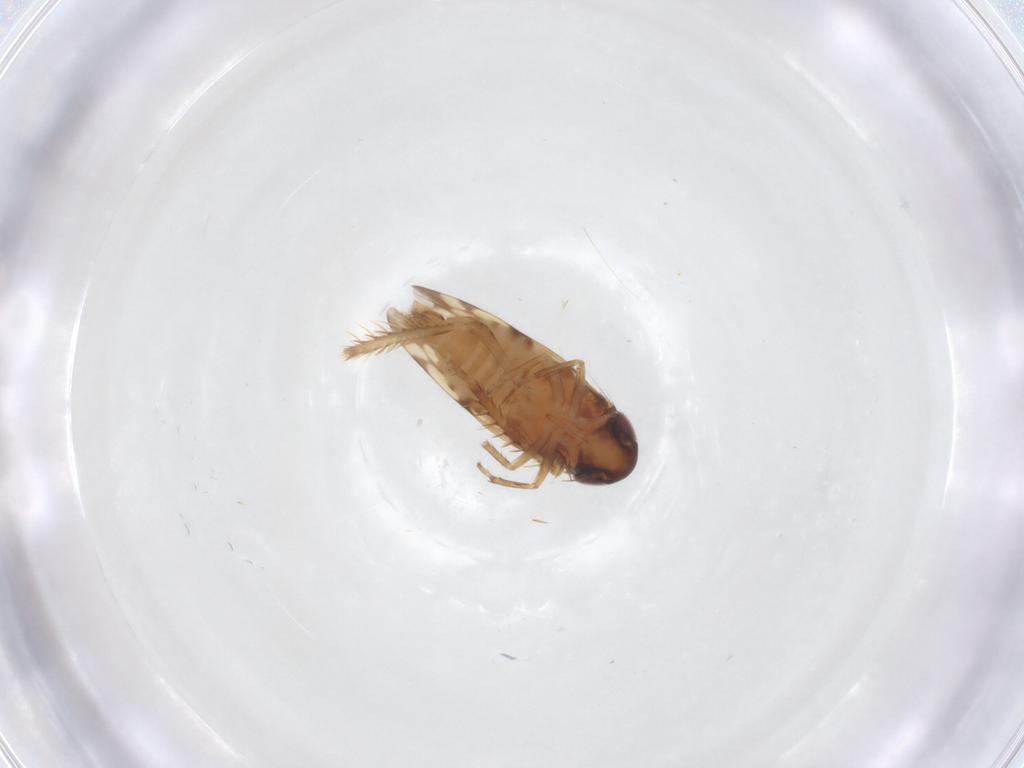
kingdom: Animalia
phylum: Arthropoda
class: Insecta
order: Hemiptera
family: Cicadellidae
